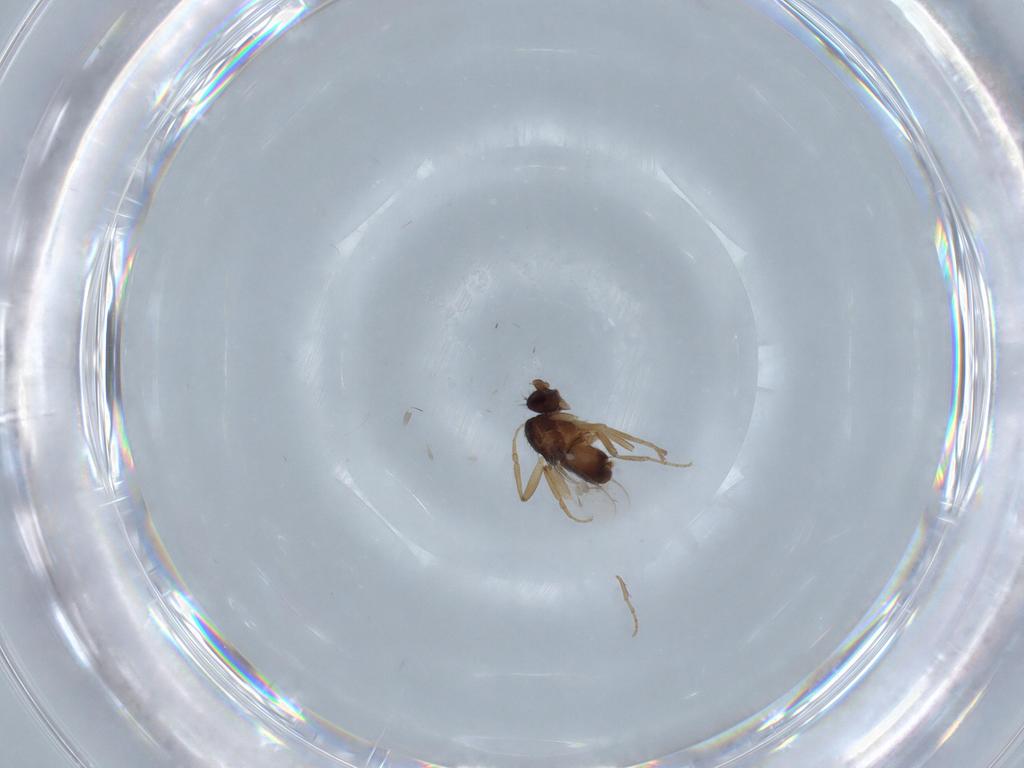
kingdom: Animalia
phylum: Arthropoda
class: Insecta
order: Diptera
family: Sphaeroceridae
